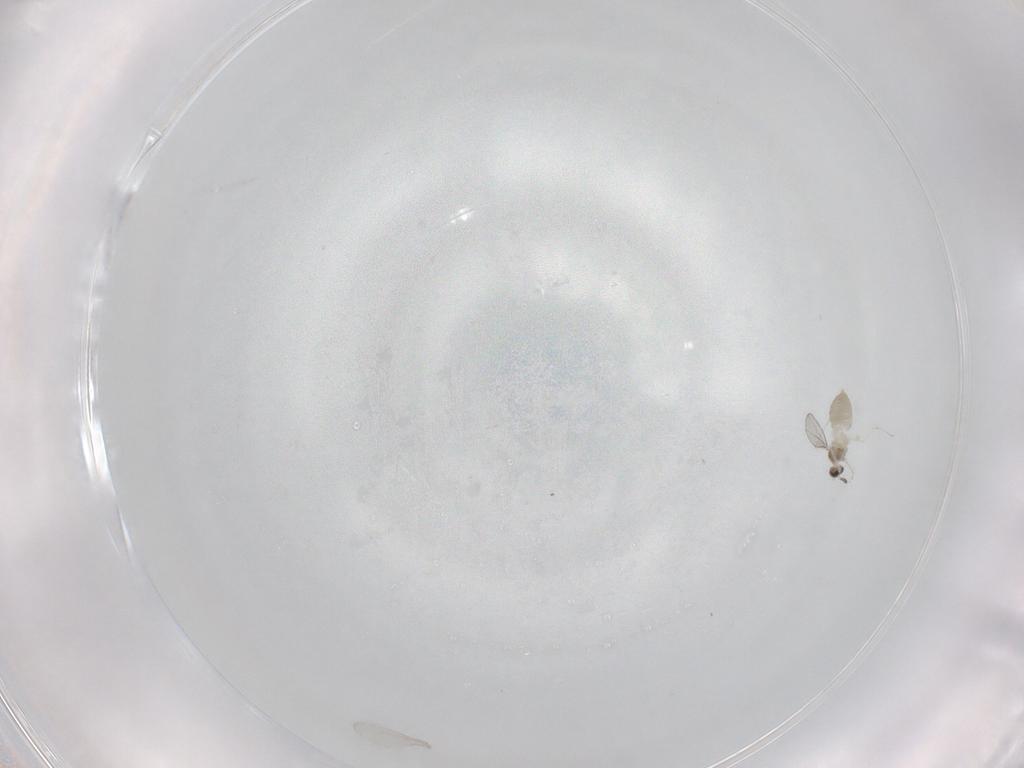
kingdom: Animalia
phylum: Arthropoda
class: Insecta
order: Diptera
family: Cecidomyiidae
